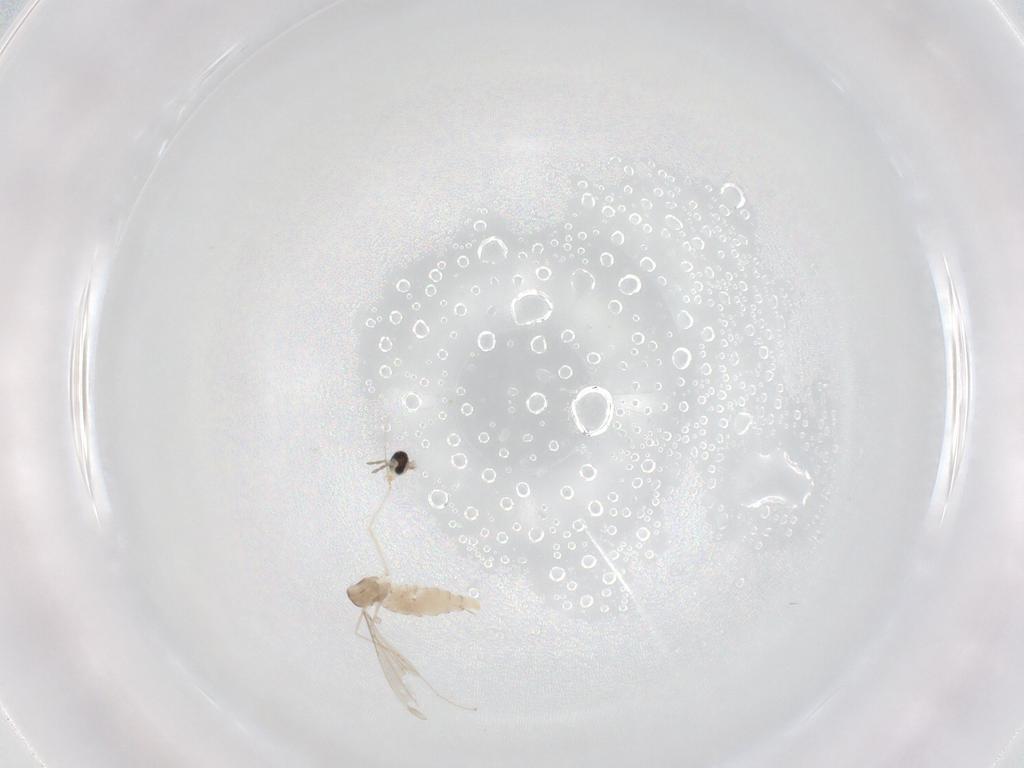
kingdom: Animalia
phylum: Arthropoda
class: Insecta
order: Diptera
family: Cecidomyiidae
